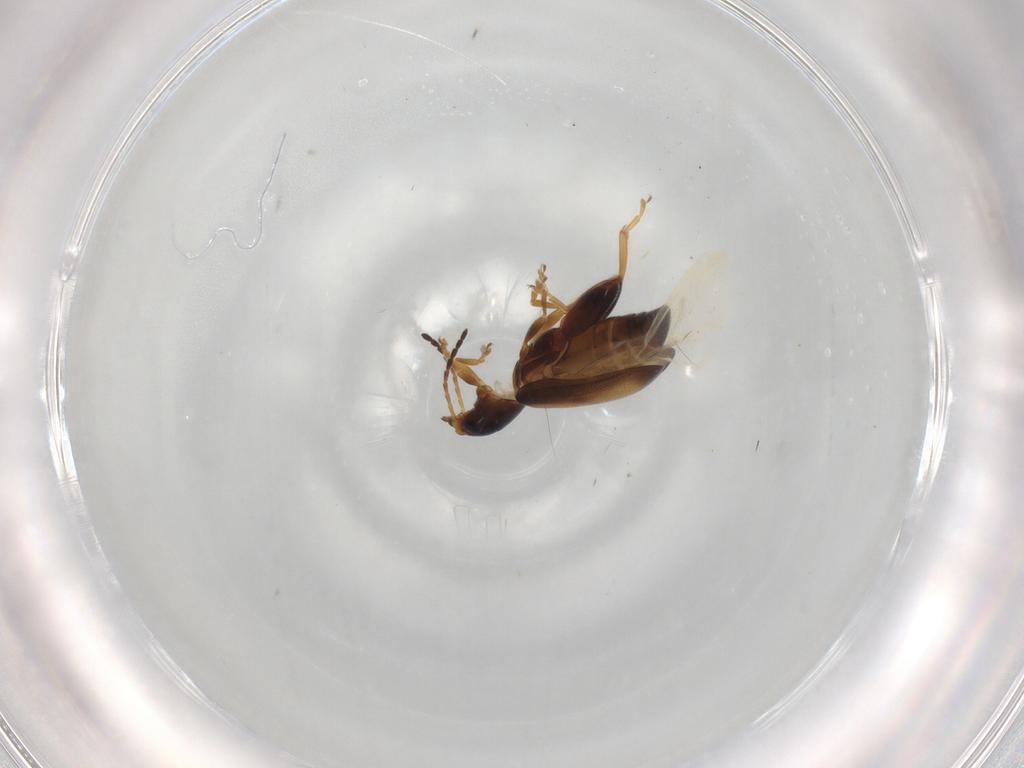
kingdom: Animalia
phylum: Arthropoda
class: Insecta
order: Coleoptera
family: Chrysomelidae
